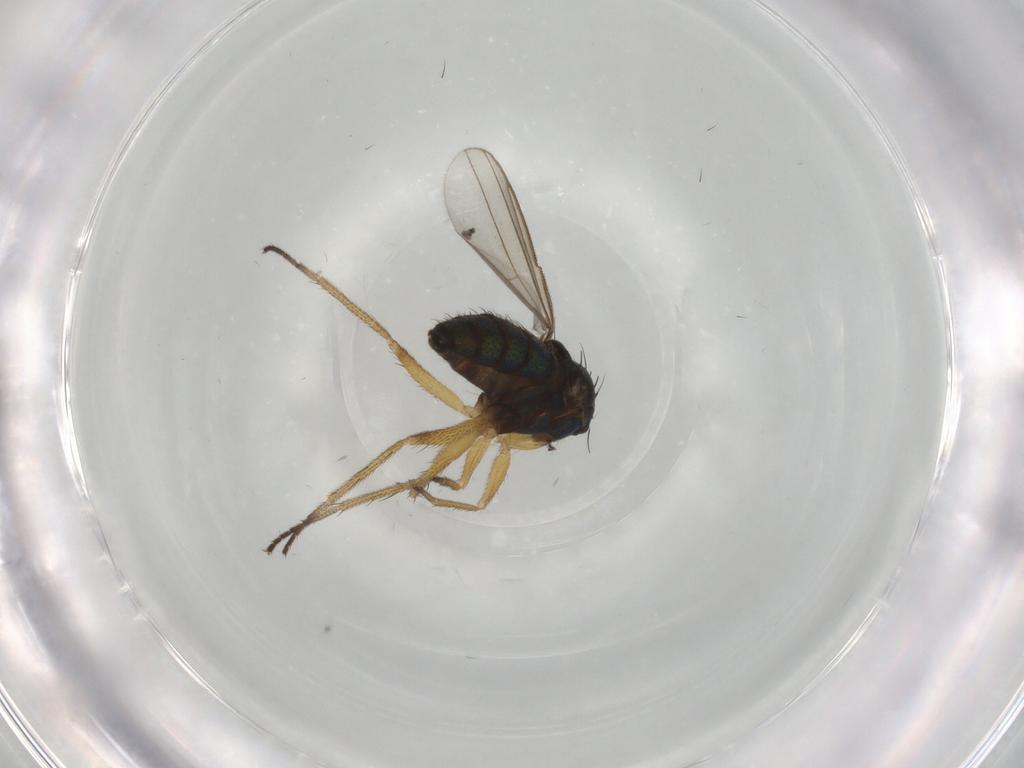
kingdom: Animalia
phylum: Arthropoda
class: Insecta
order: Diptera
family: Dolichopodidae
